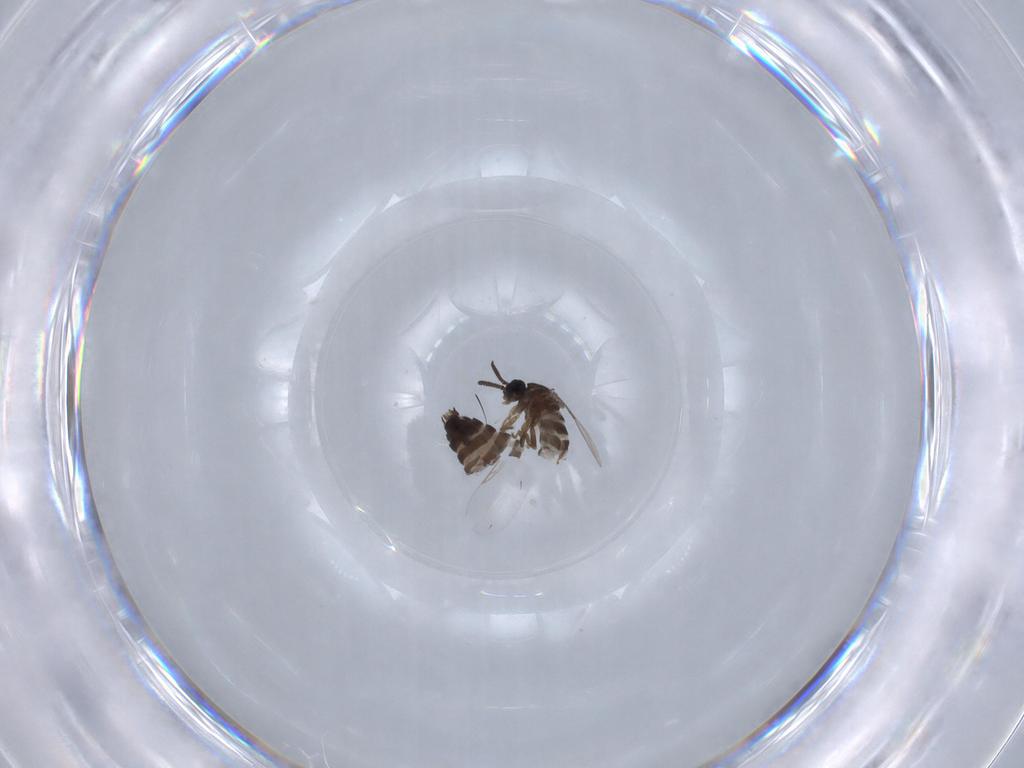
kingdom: Animalia
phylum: Arthropoda
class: Insecta
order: Diptera
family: Scatopsidae
